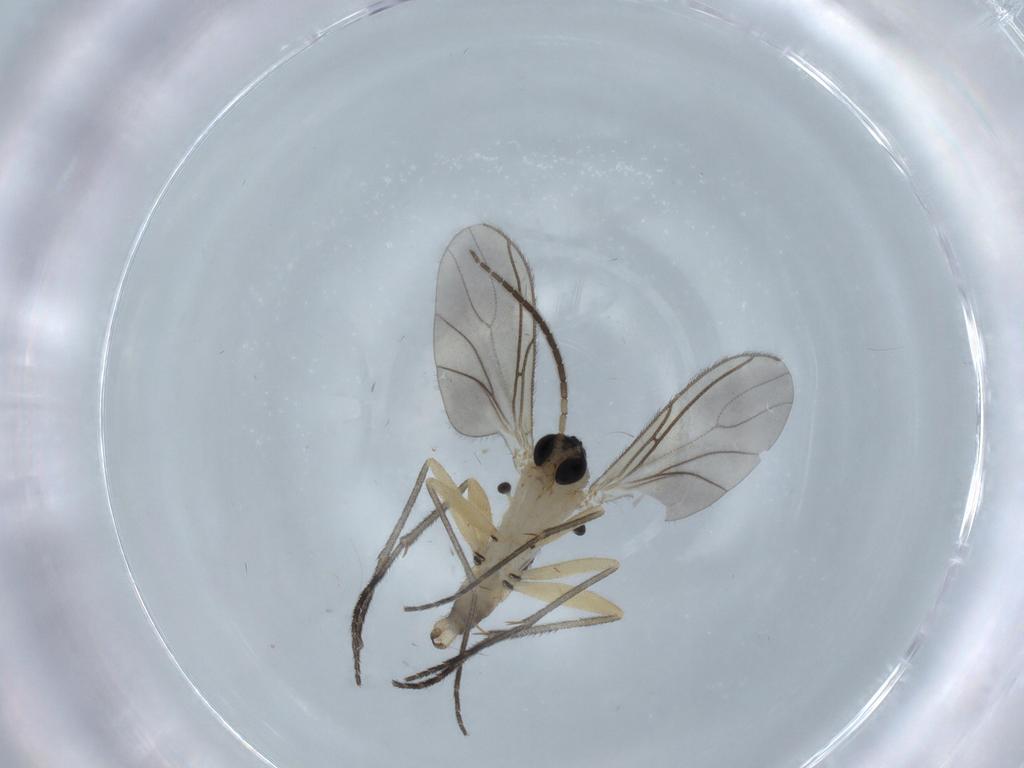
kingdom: Animalia
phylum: Arthropoda
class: Insecta
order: Diptera
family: Sciaridae
